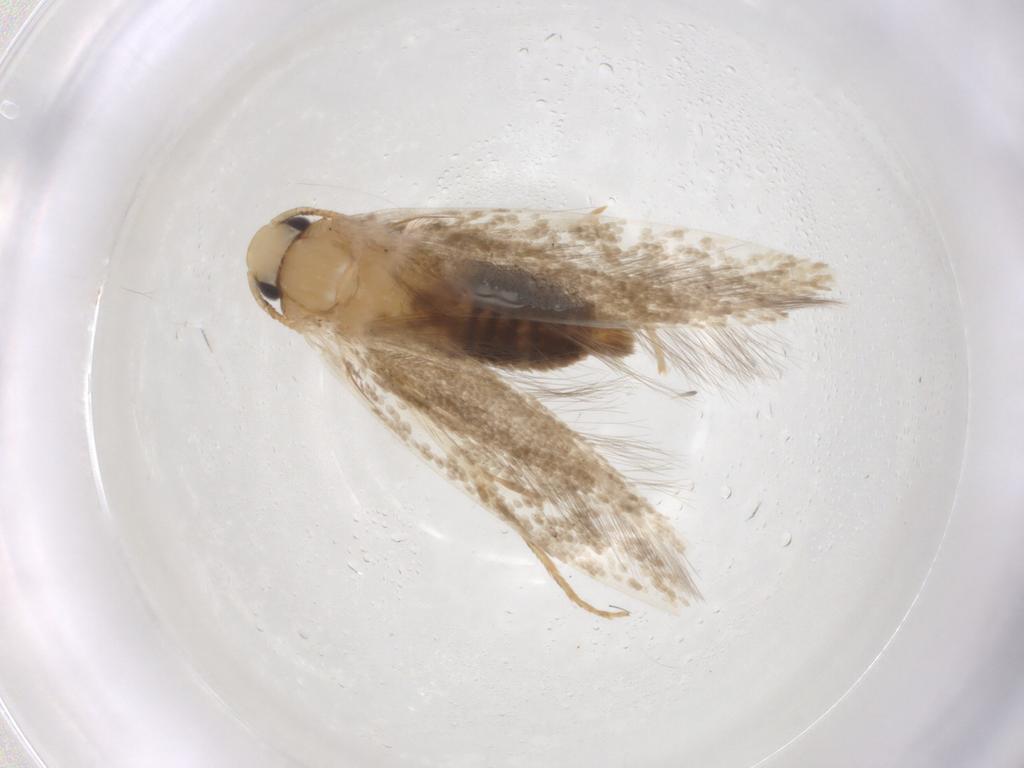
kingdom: Animalia
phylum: Arthropoda
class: Insecta
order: Lepidoptera
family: Tineidae
